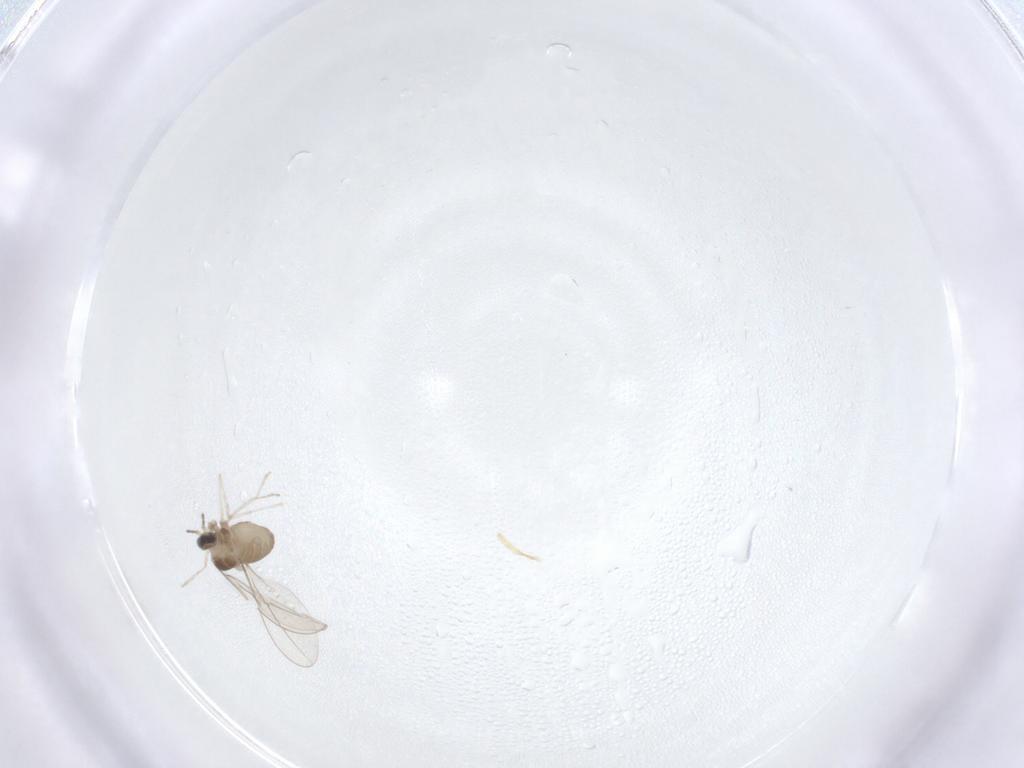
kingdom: Animalia
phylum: Arthropoda
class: Insecta
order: Diptera
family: Cecidomyiidae
